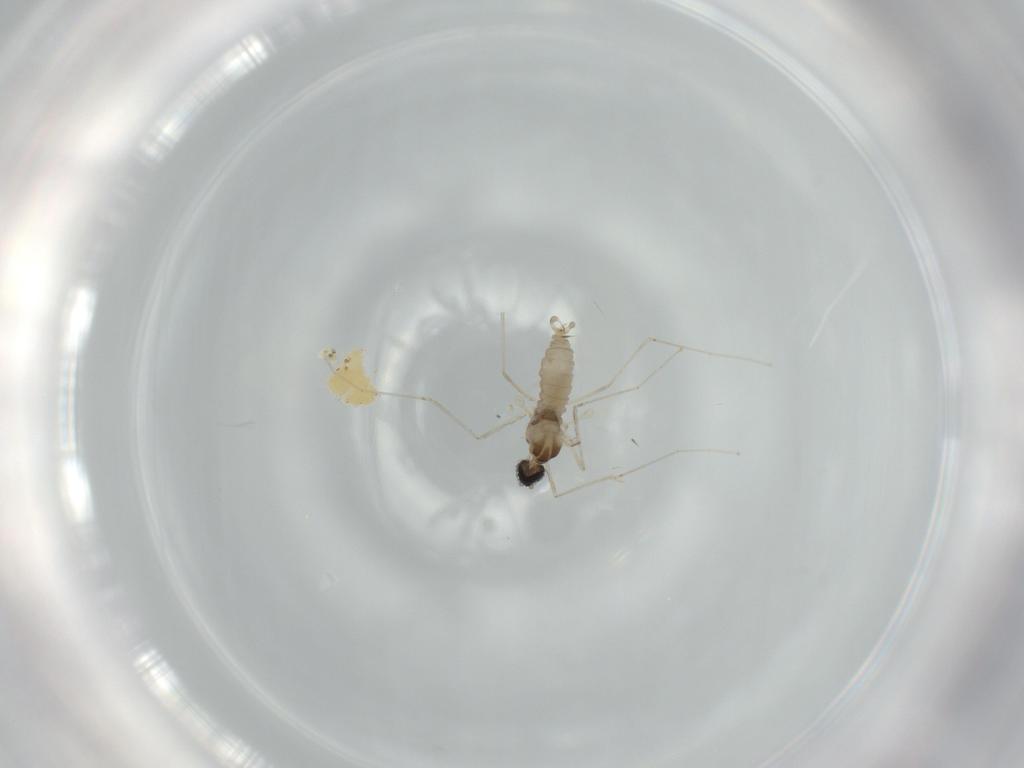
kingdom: Animalia
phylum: Arthropoda
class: Insecta
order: Diptera
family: Cecidomyiidae
